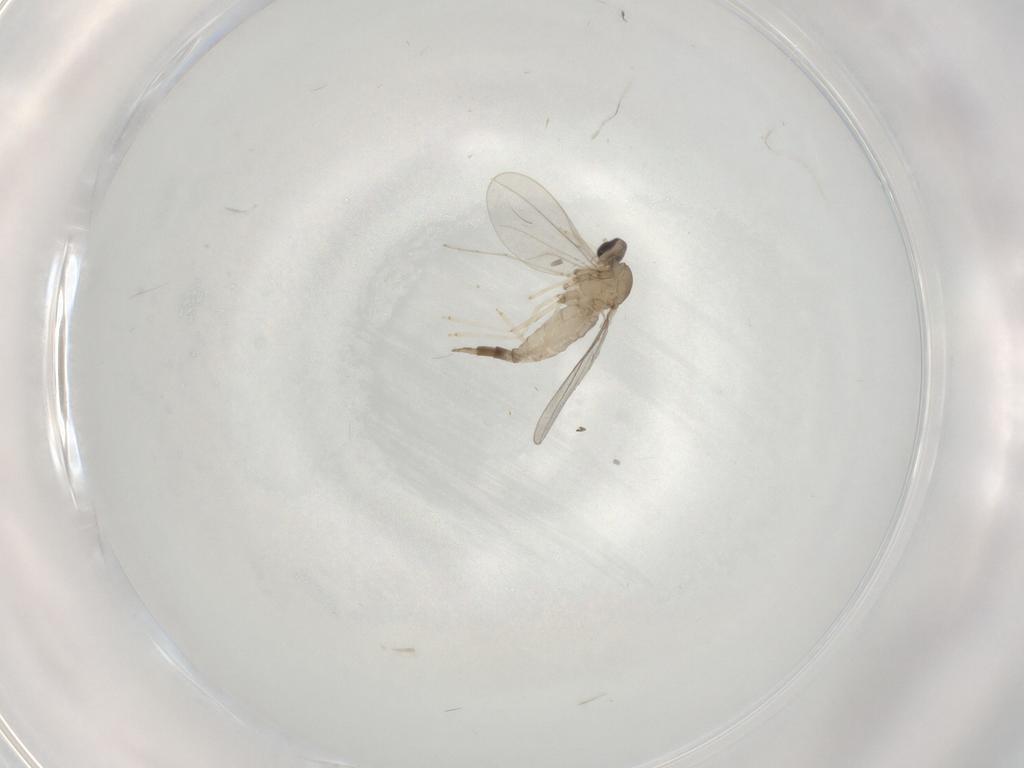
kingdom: Animalia
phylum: Arthropoda
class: Insecta
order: Diptera
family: Cecidomyiidae
